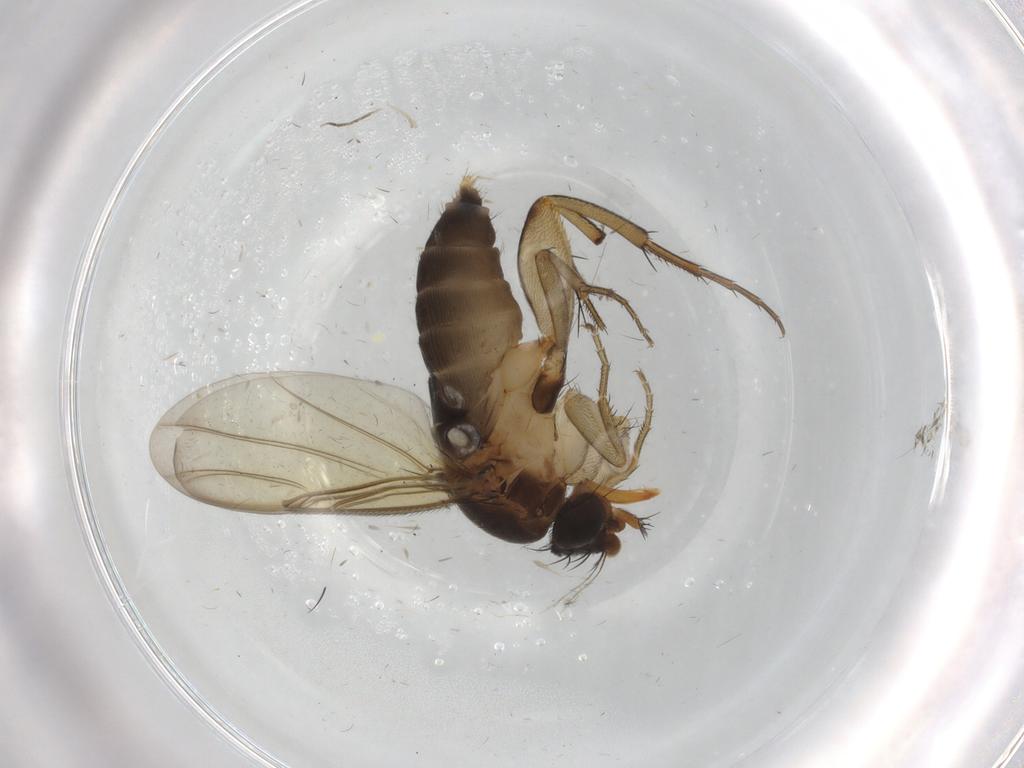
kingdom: Animalia
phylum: Arthropoda
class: Insecta
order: Diptera
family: Cecidomyiidae
